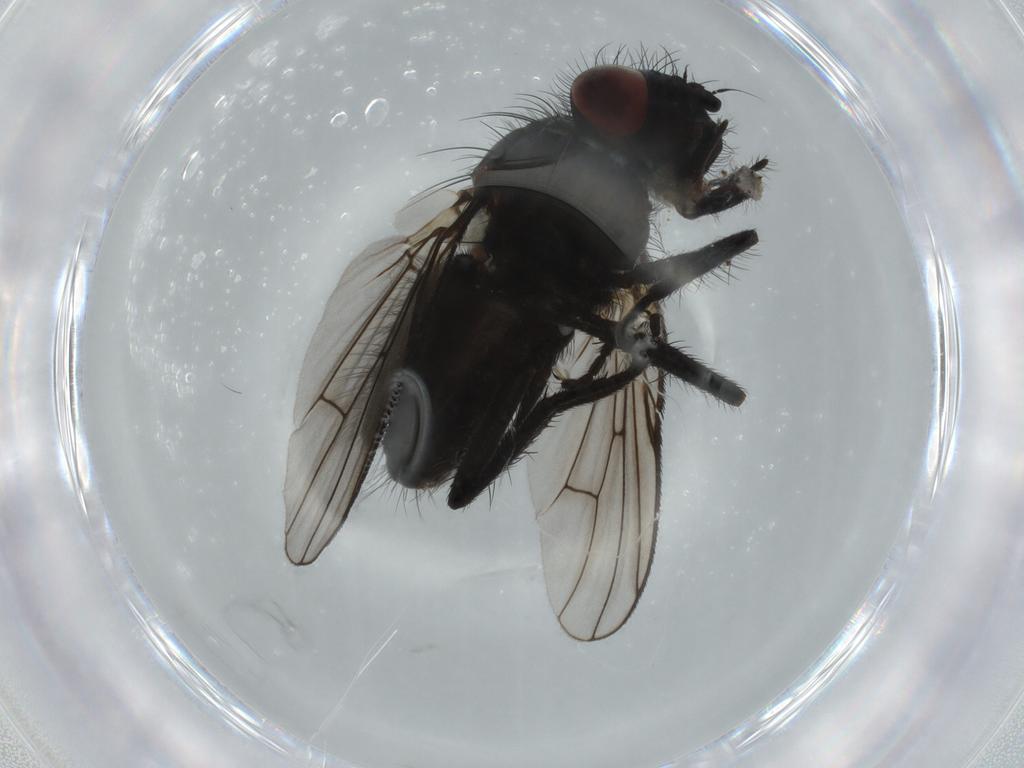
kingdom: Animalia
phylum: Arthropoda
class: Insecta
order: Diptera
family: Muscidae
